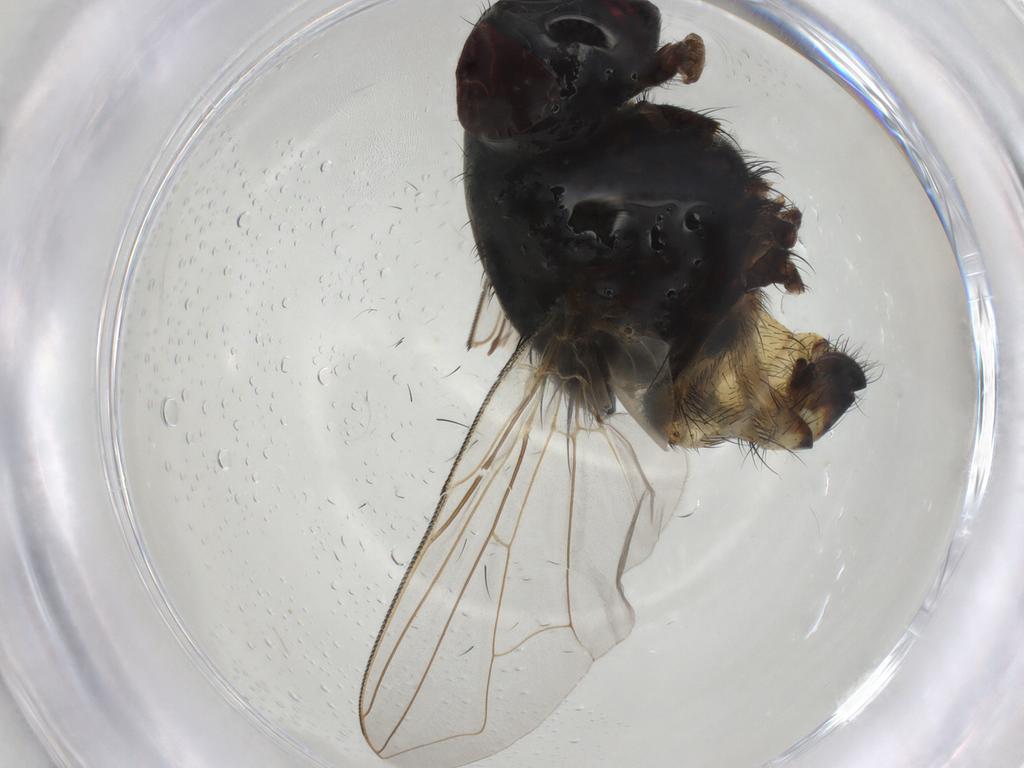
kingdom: Animalia
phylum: Arthropoda
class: Insecta
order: Diptera
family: Muscidae
